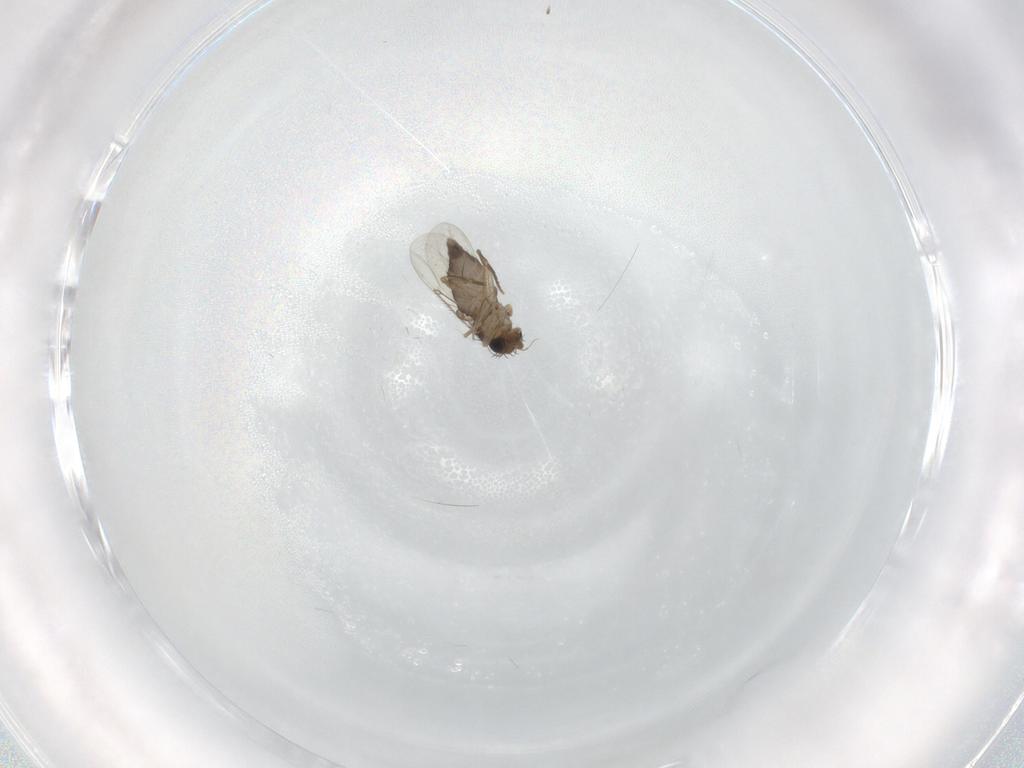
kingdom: Animalia
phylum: Arthropoda
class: Insecta
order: Diptera
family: Phoridae
